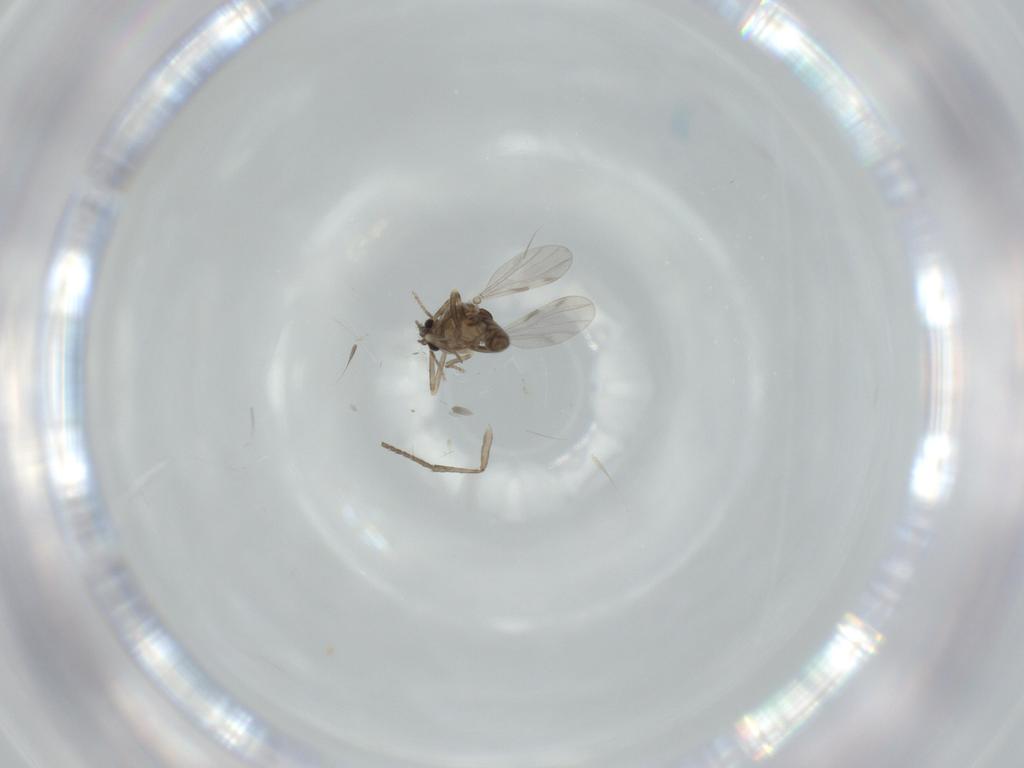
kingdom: Animalia
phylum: Arthropoda
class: Insecta
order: Diptera
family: Ceratopogonidae
